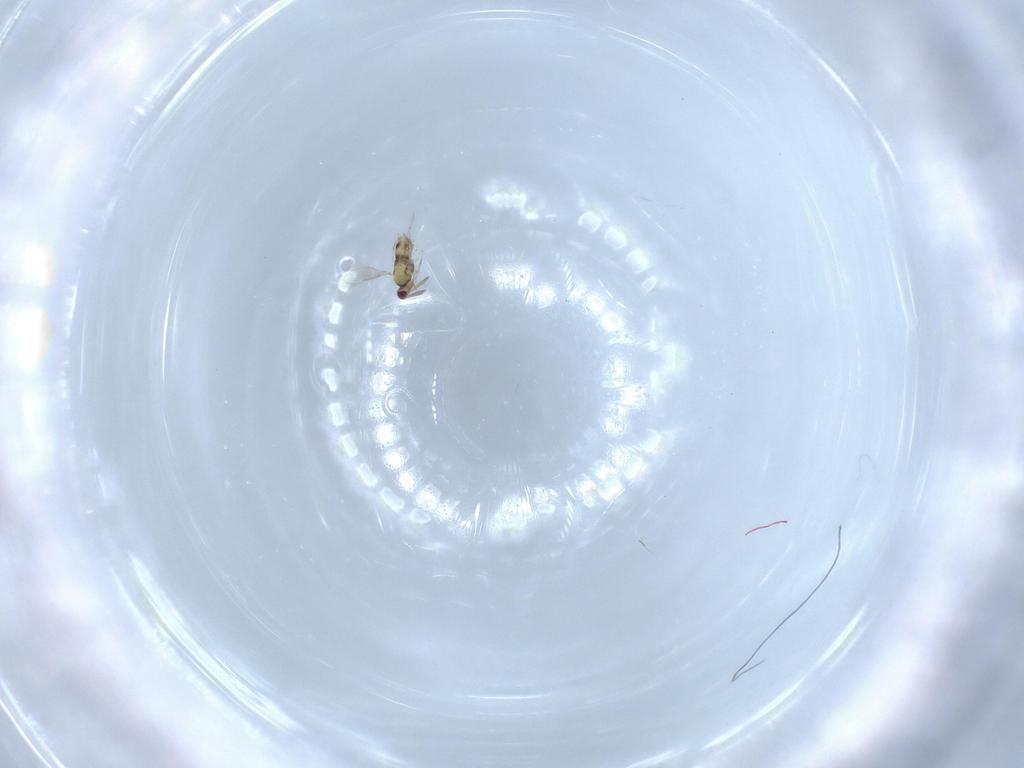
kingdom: Animalia
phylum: Arthropoda
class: Insecta
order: Hymenoptera
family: Aphelinidae
